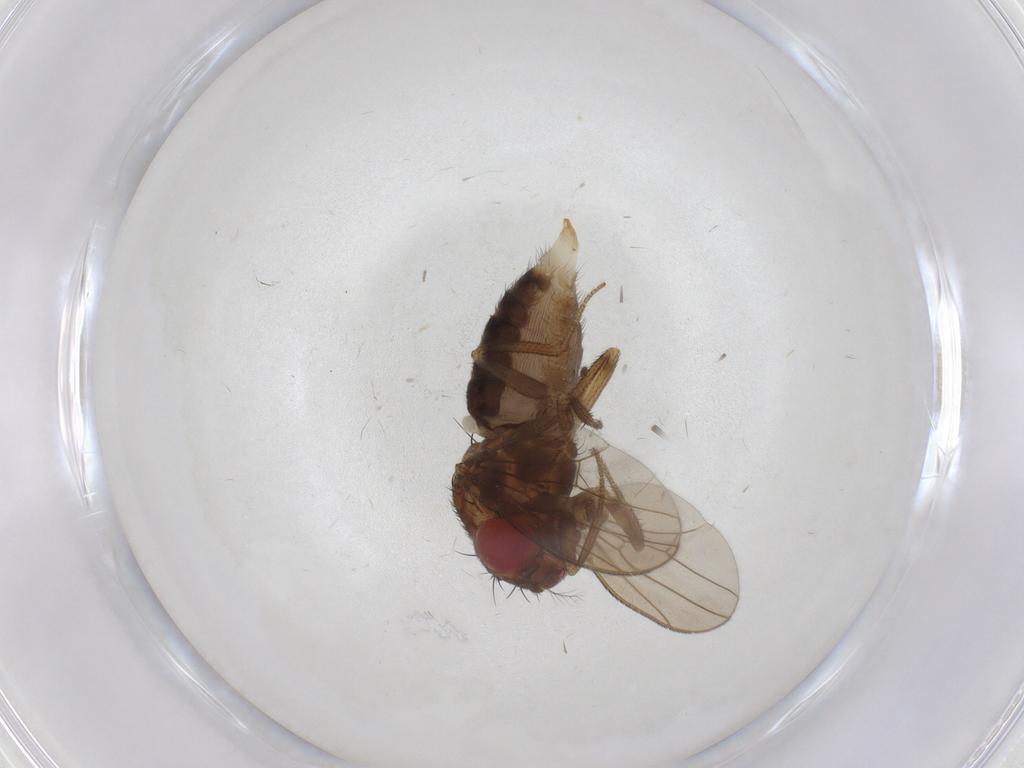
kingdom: Animalia
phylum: Arthropoda
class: Insecta
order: Diptera
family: Drosophilidae
